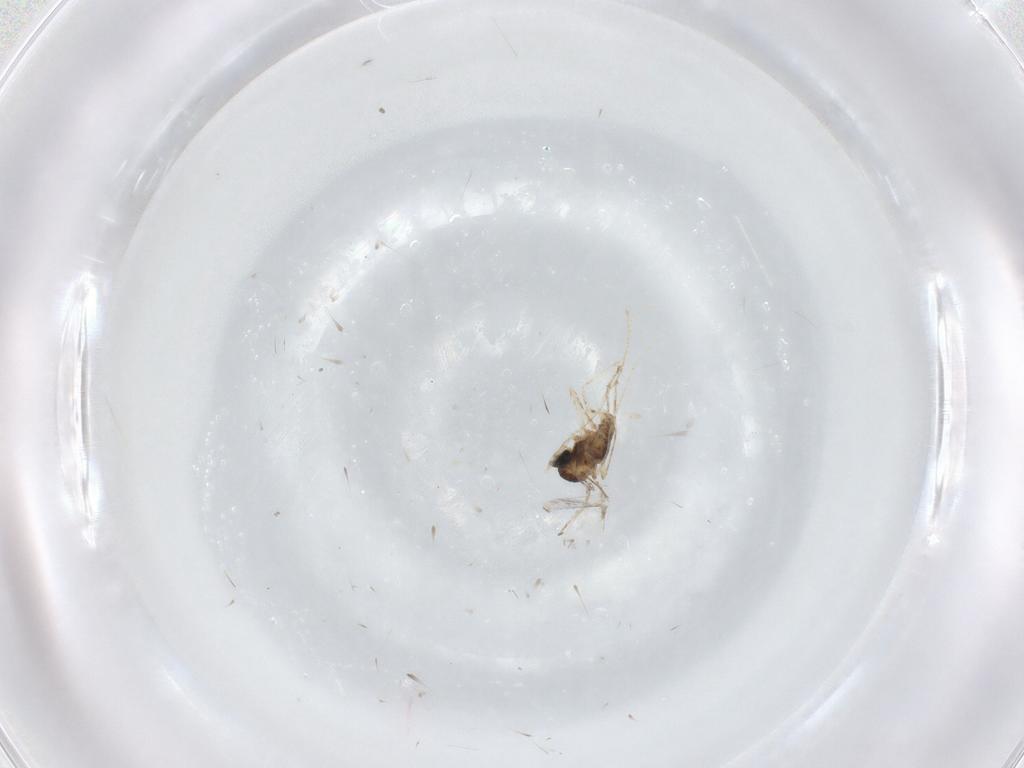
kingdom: Animalia
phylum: Arthropoda
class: Insecta
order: Diptera
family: Cecidomyiidae
